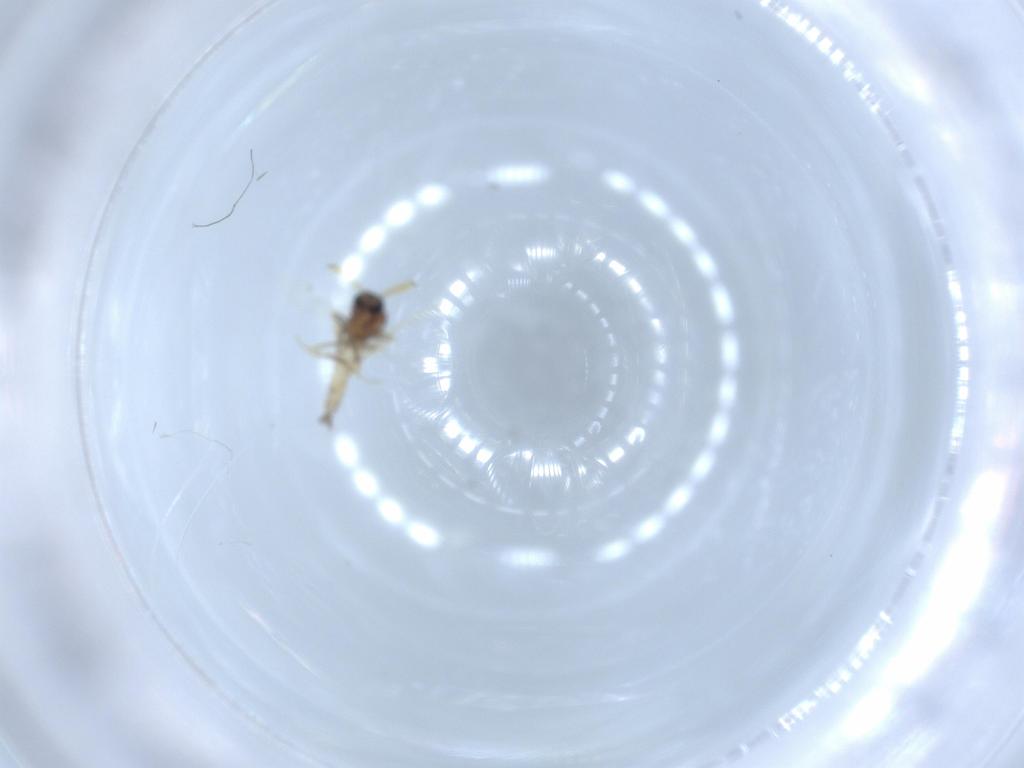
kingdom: Animalia
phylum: Arthropoda
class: Insecta
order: Diptera
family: Ceratopogonidae
